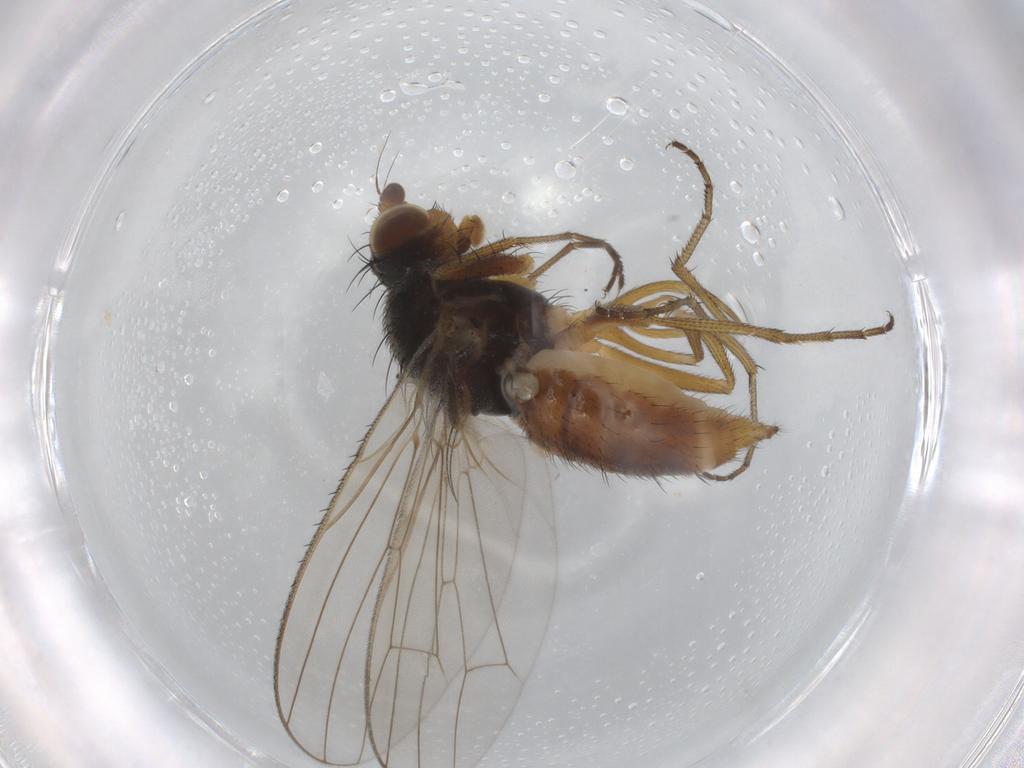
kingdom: Animalia
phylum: Arthropoda
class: Insecta
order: Diptera
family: Heleomyzidae
